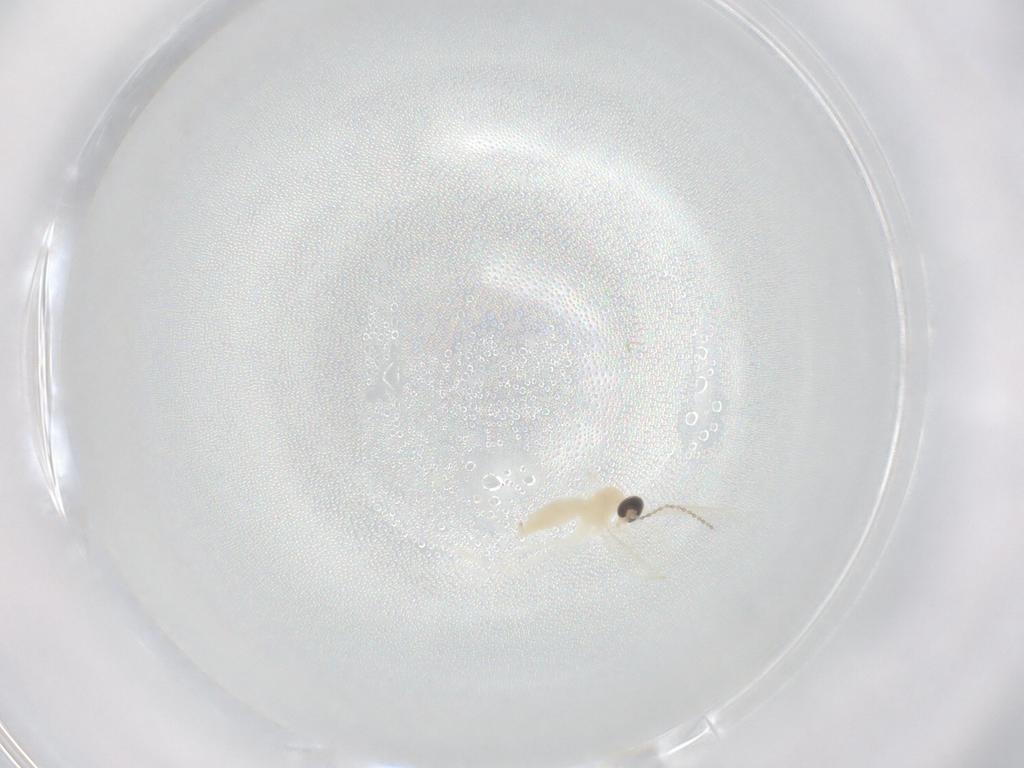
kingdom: Animalia
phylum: Arthropoda
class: Insecta
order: Diptera
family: Cecidomyiidae
